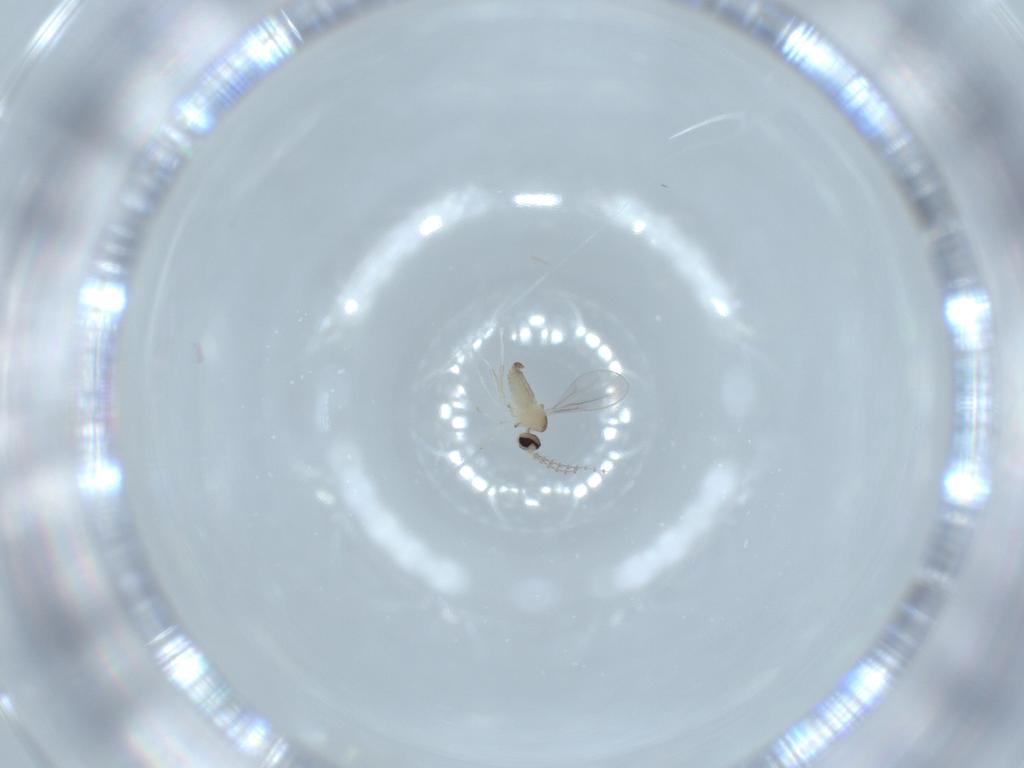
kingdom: Animalia
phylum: Arthropoda
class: Insecta
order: Diptera
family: Cecidomyiidae
